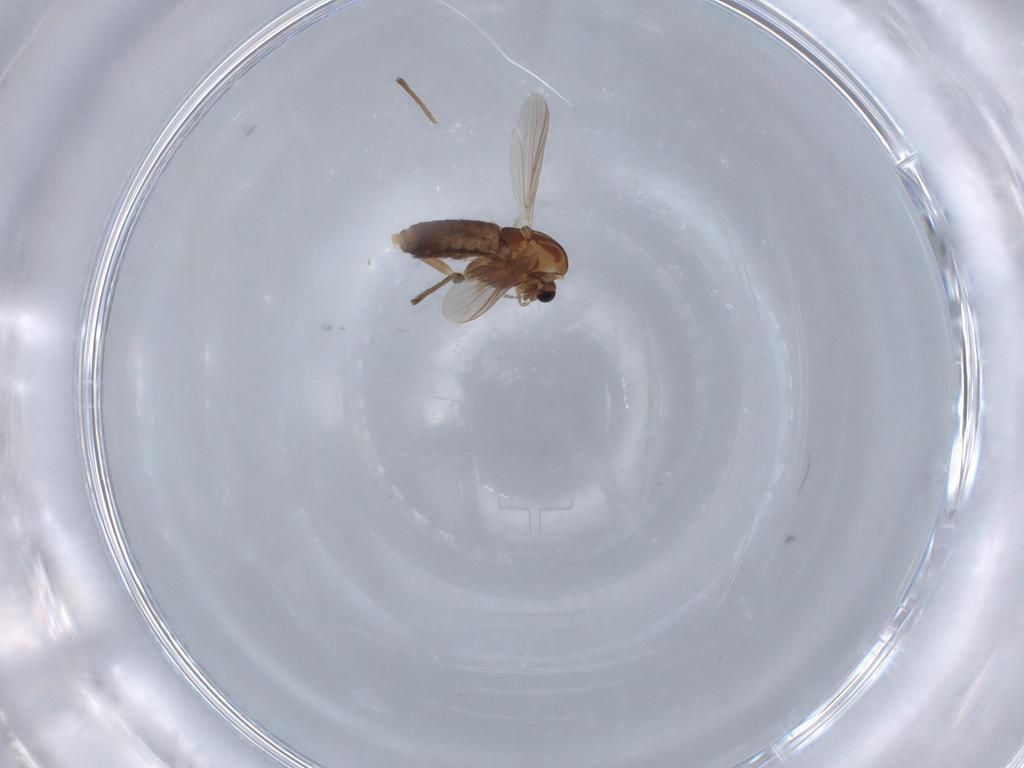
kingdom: Animalia
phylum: Arthropoda
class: Insecta
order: Diptera
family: Chironomidae
